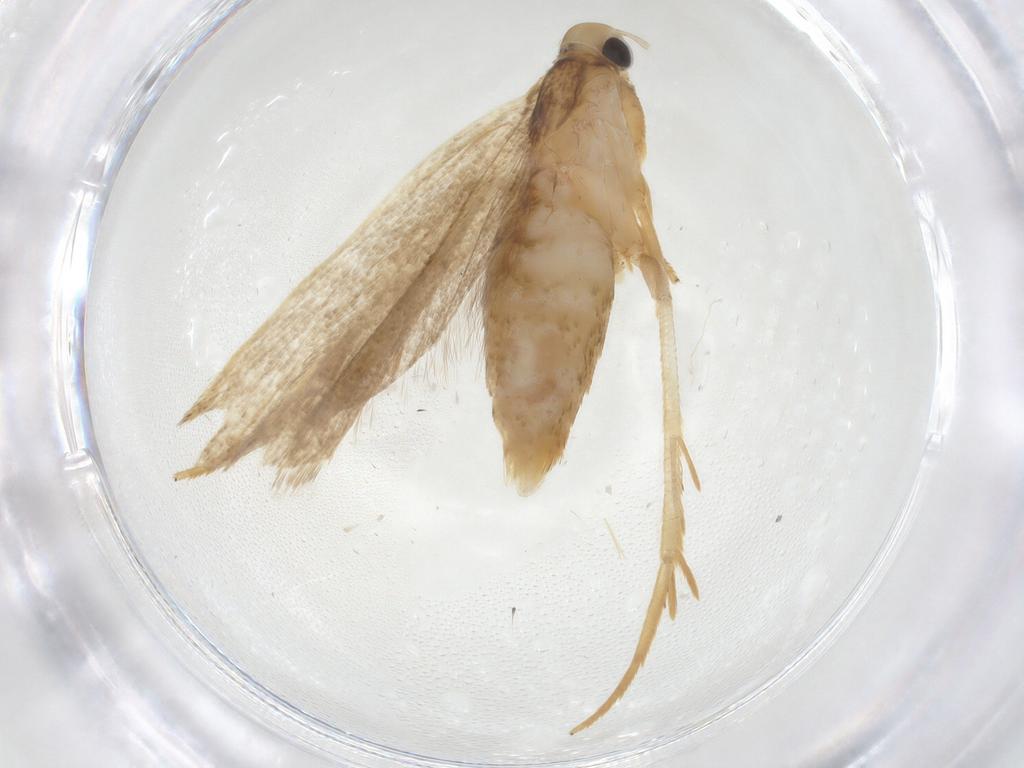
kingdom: Animalia
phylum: Arthropoda
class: Insecta
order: Lepidoptera
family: Gelechiidae
